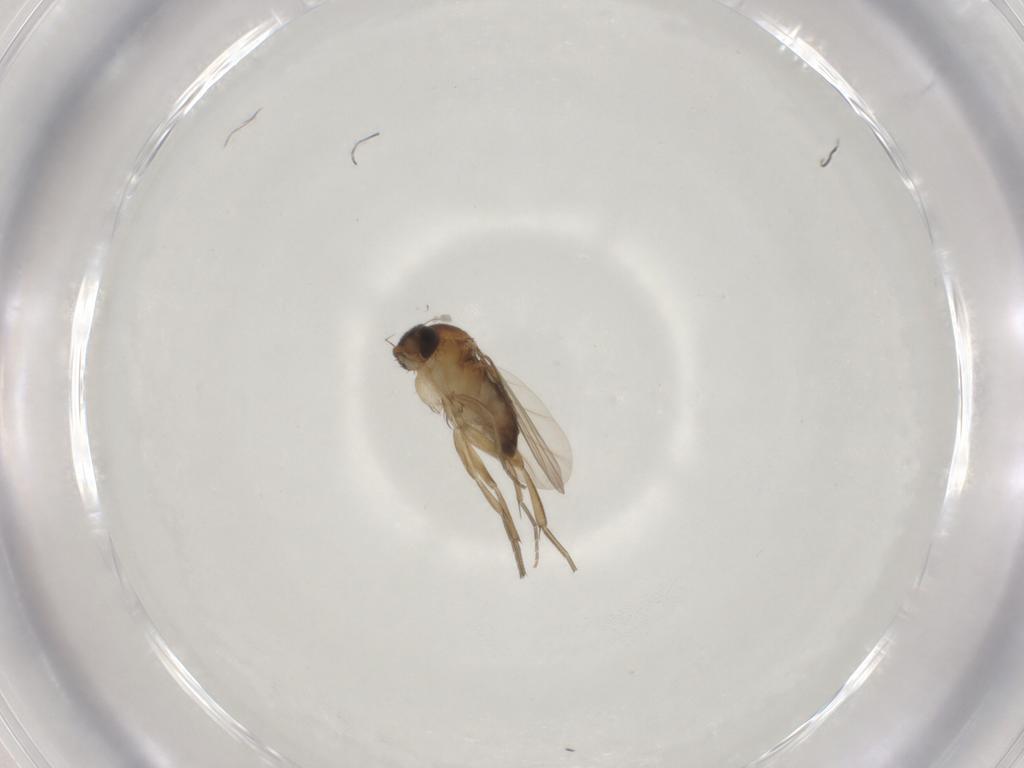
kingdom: Animalia
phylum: Arthropoda
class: Insecta
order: Diptera
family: Phoridae
